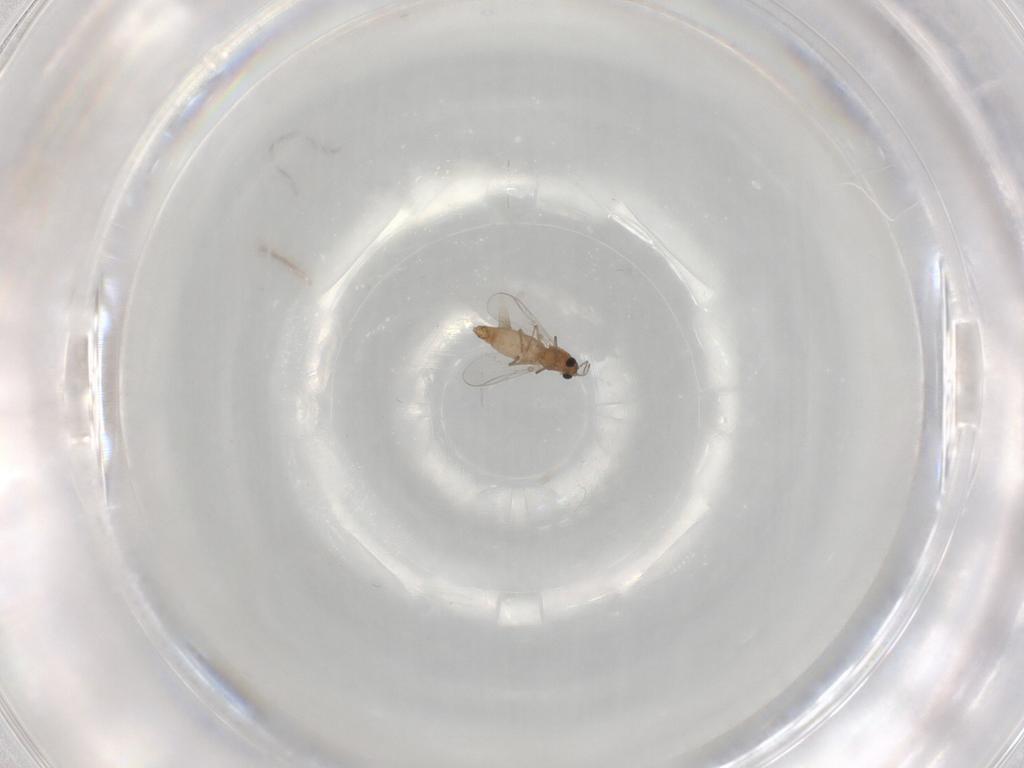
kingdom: Animalia
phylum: Arthropoda
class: Insecta
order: Diptera
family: Chironomidae
